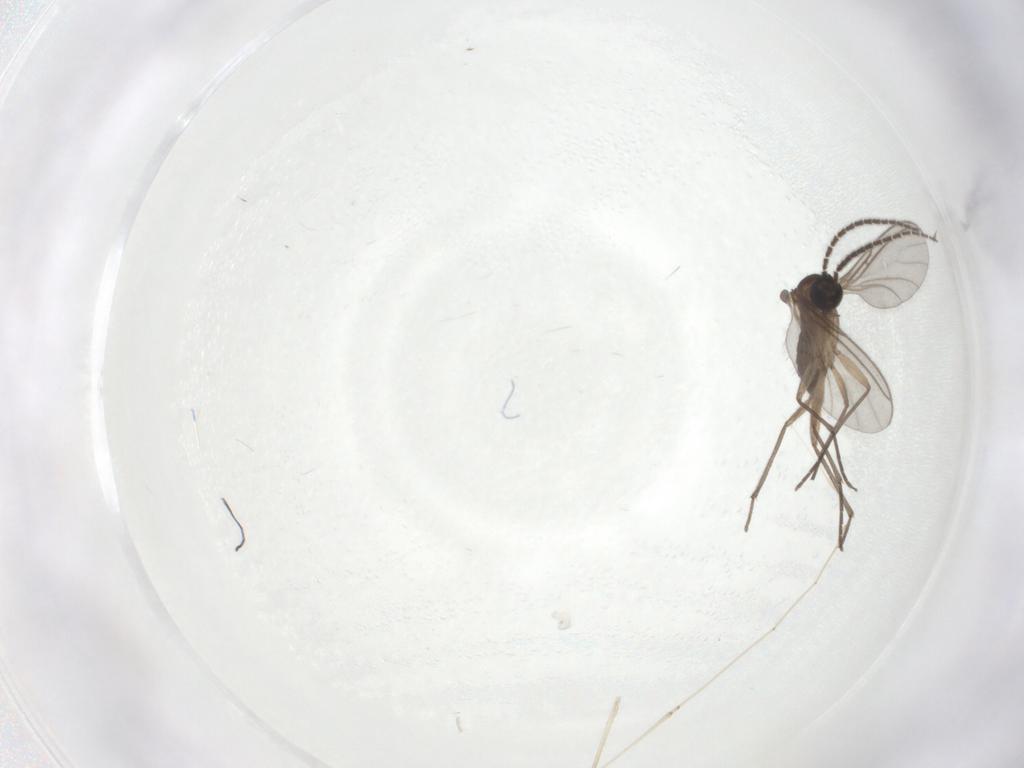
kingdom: Animalia
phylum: Arthropoda
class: Insecta
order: Diptera
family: Sciaridae
